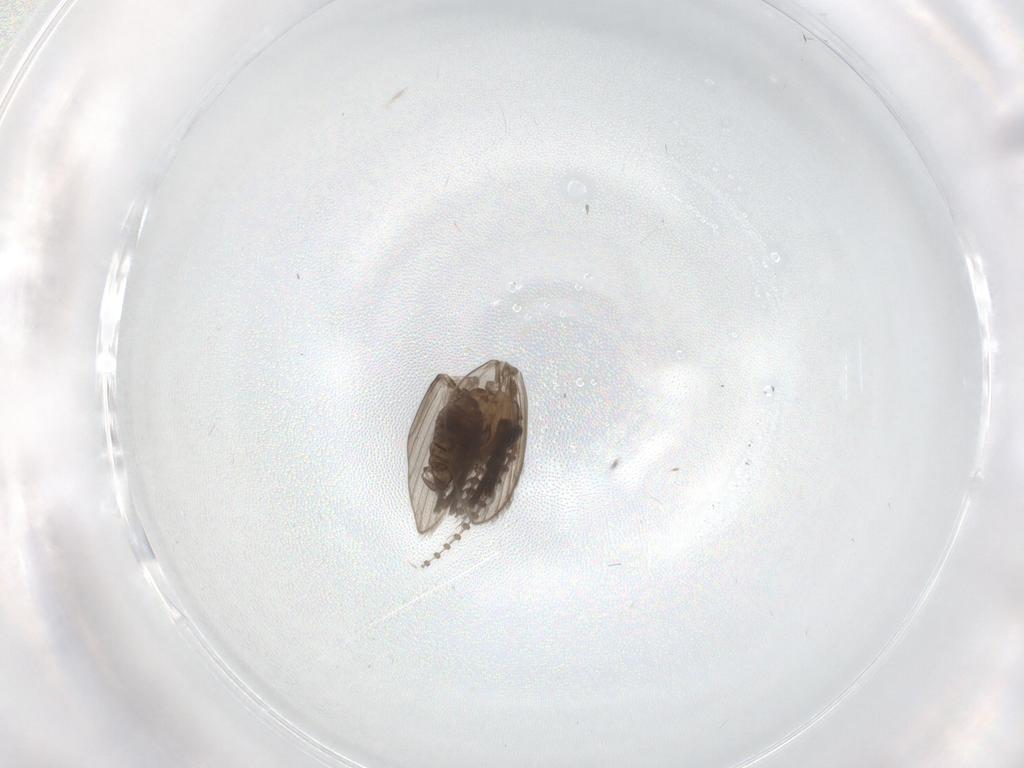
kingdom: Animalia
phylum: Arthropoda
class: Insecta
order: Diptera
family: Psychodidae
